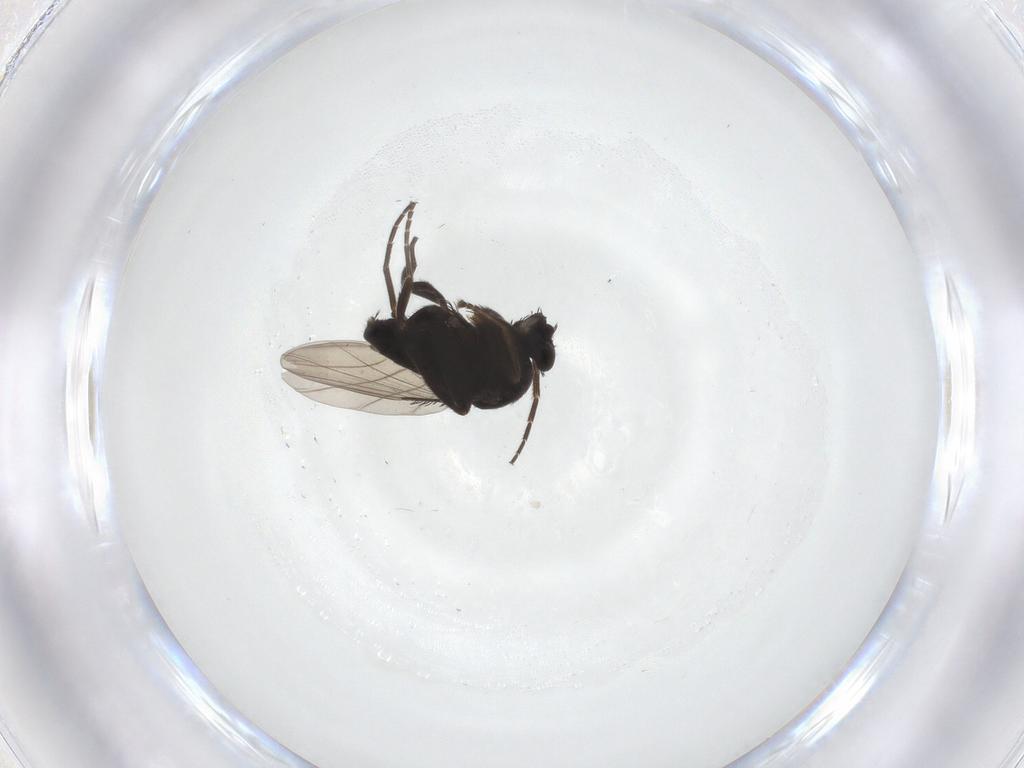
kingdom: Animalia
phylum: Arthropoda
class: Insecta
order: Diptera
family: Phoridae
